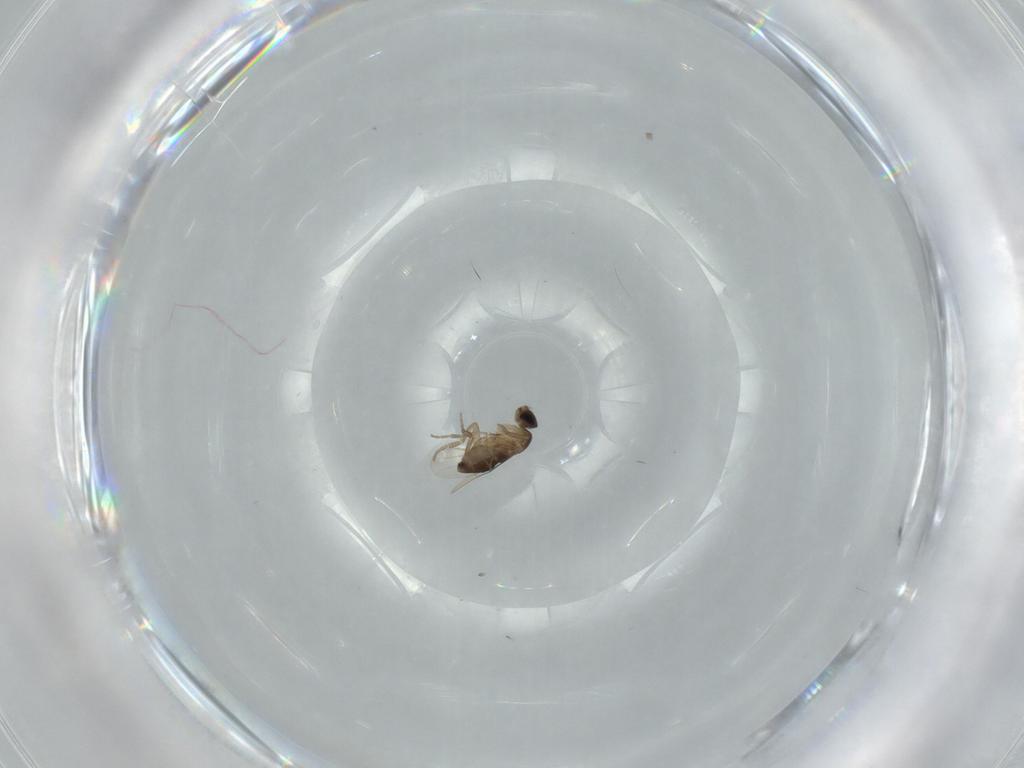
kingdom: Animalia
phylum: Arthropoda
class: Insecta
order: Diptera
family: Phoridae
